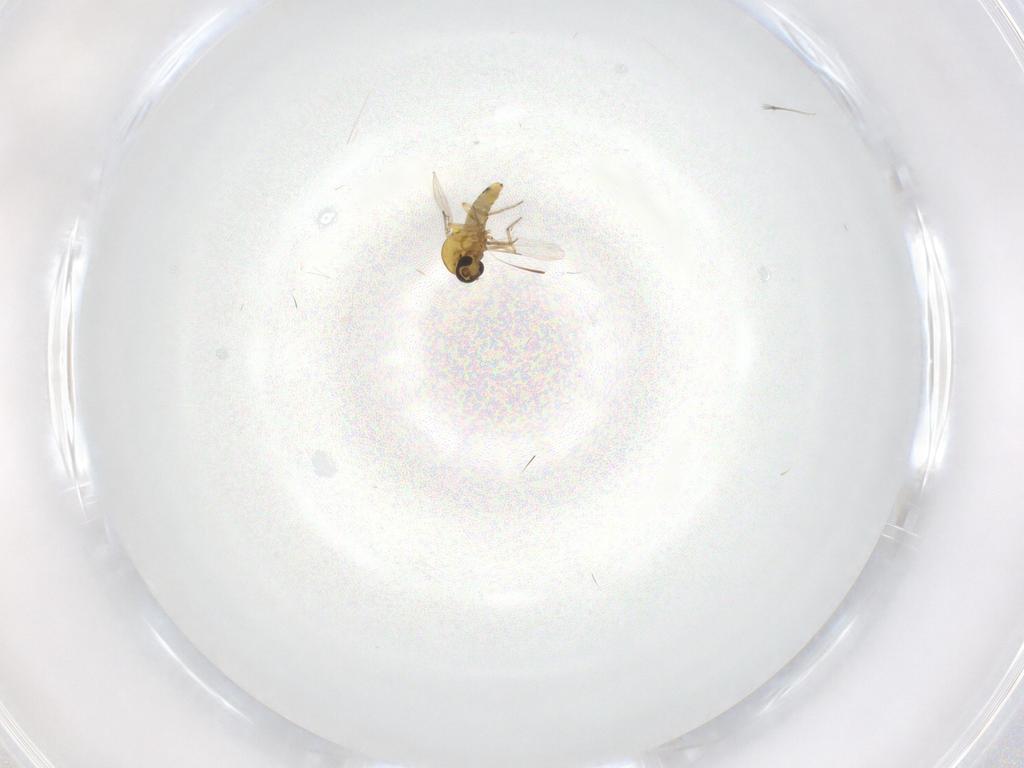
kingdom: Animalia
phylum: Arthropoda
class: Insecta
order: Diptera
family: Ceratopogonidae
